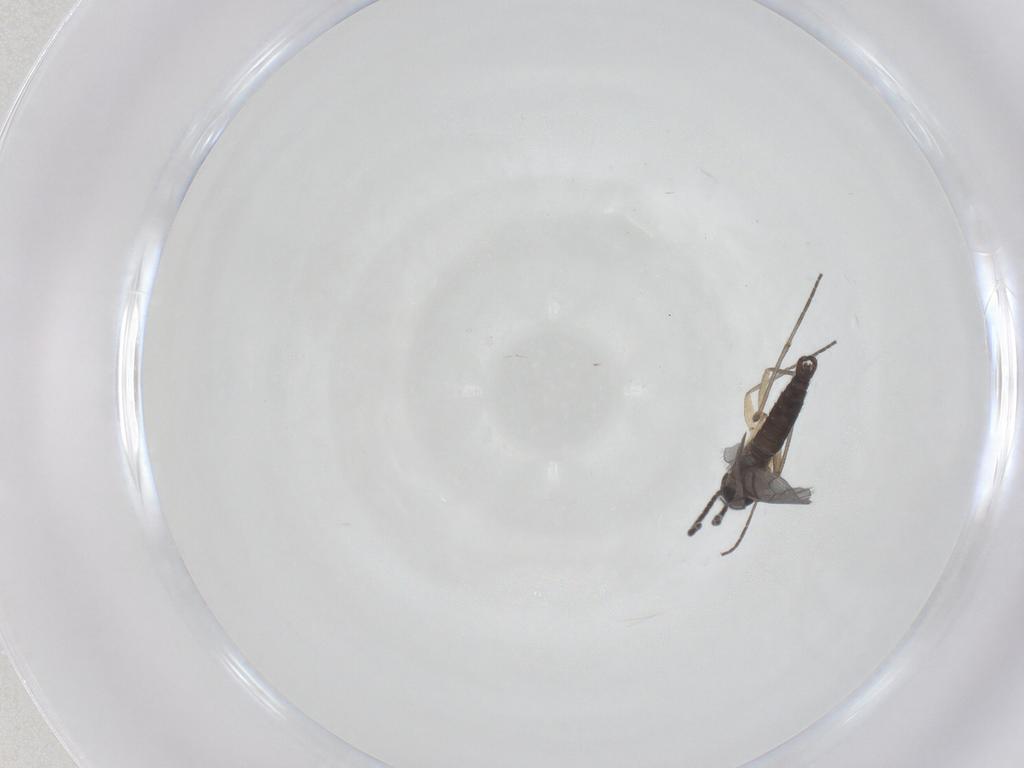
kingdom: Animalia
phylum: Arthropoda
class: Insecta
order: Diptera
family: Sciaridae
